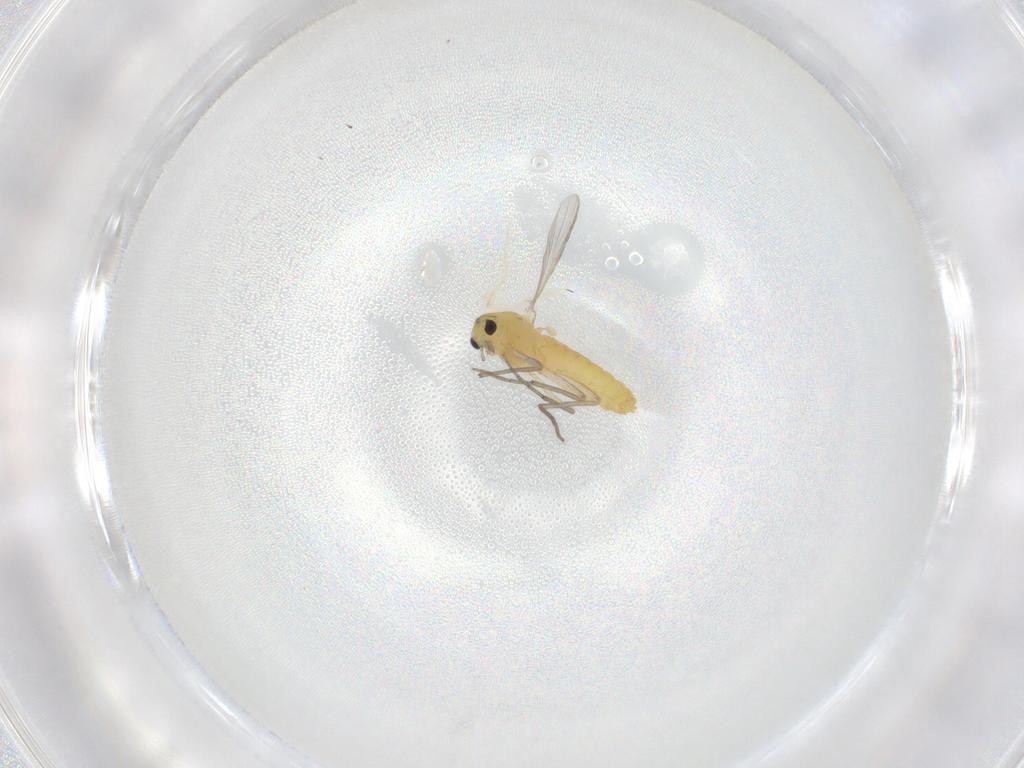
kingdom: Animalia
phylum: Arthropoda
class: Insecta
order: Diptera
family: Chironomidae
